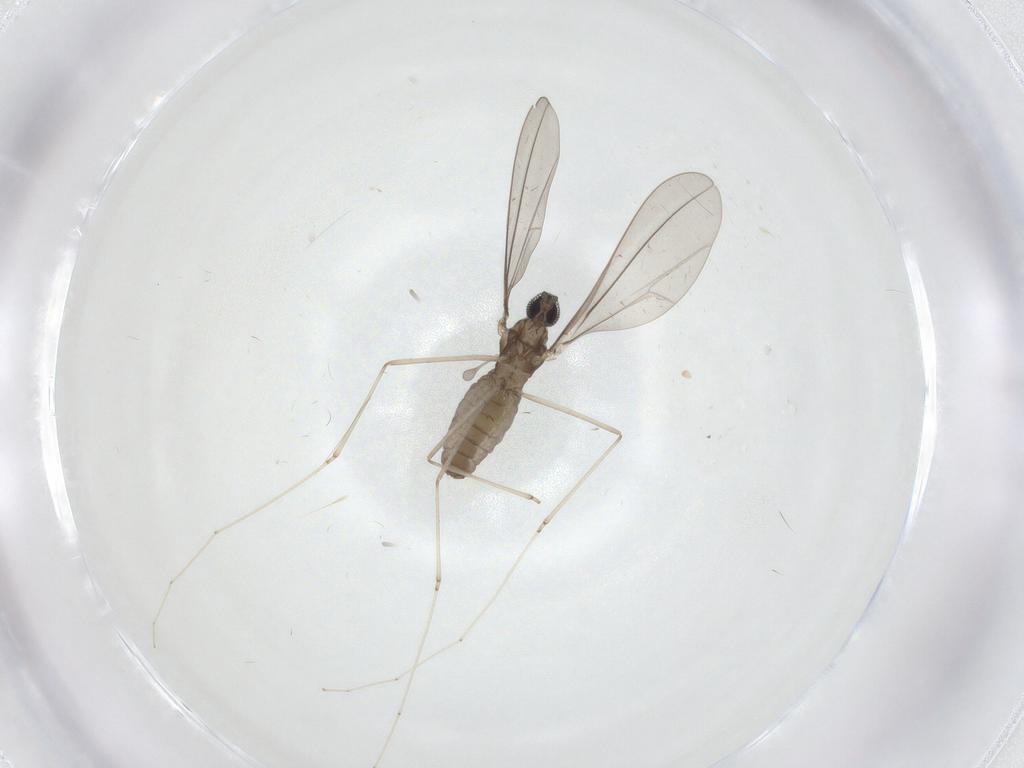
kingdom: Animalia
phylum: Arthropoda
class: Insecta
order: Diptera
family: Cecidomyiidae
